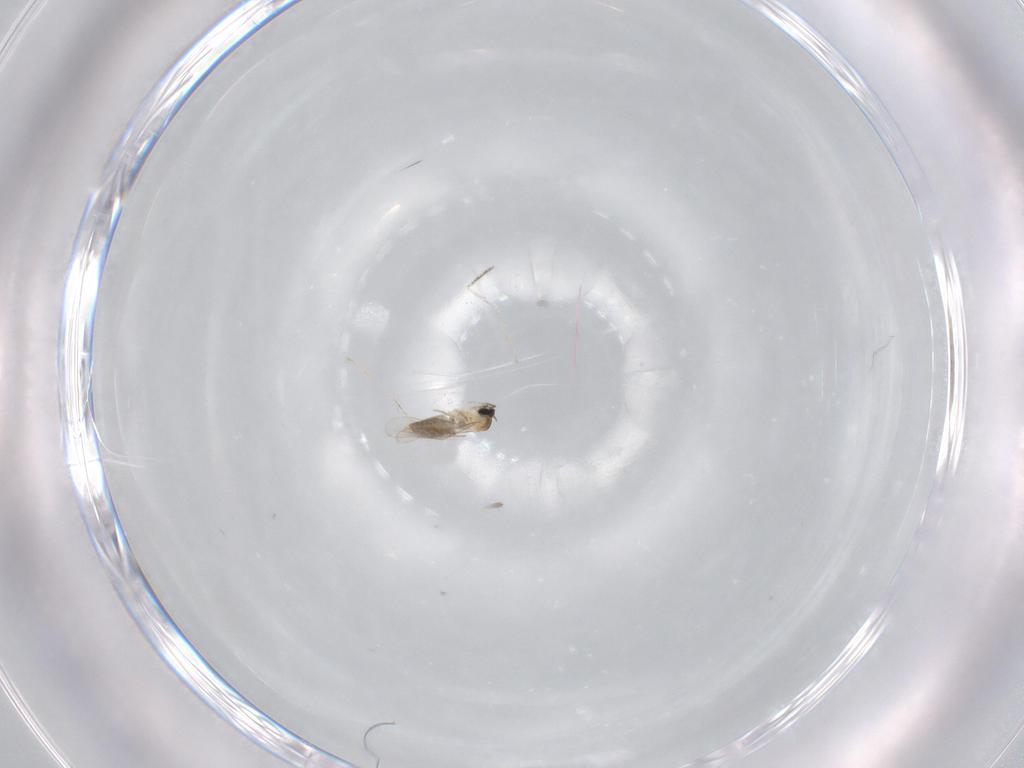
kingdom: Animalia
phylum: Arthropoda
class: Insecta
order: Diptera
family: Cecidomyiidae
